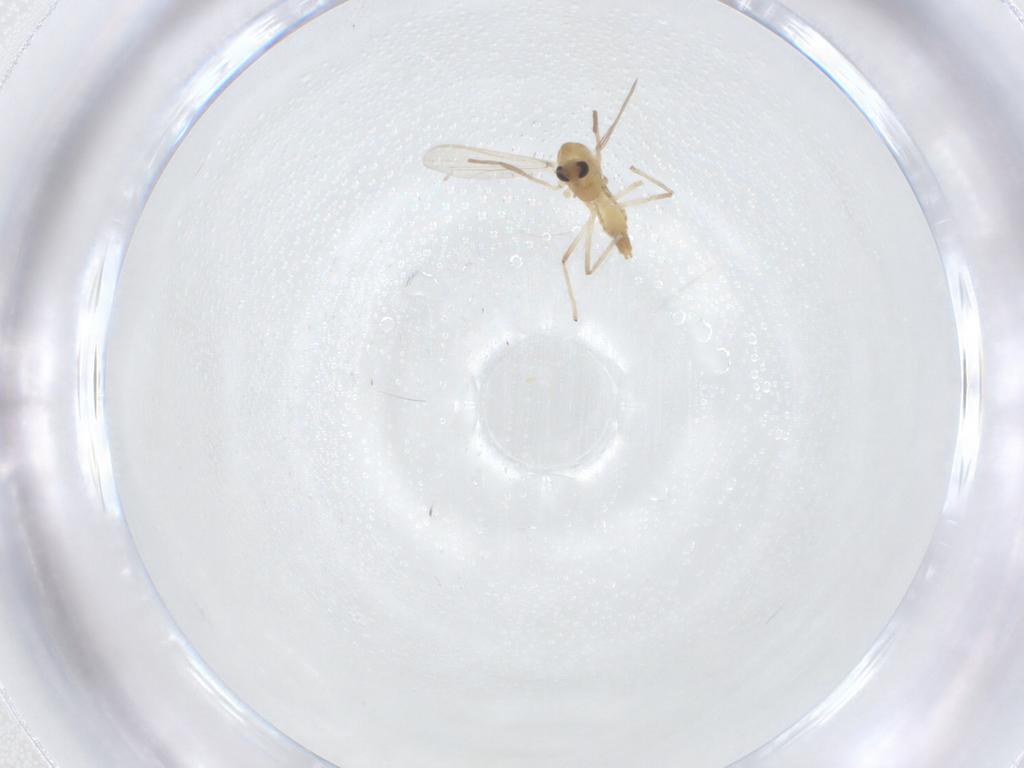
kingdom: Animalia
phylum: Arthropoda
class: Insecta
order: Diptera
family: Chironomidae
